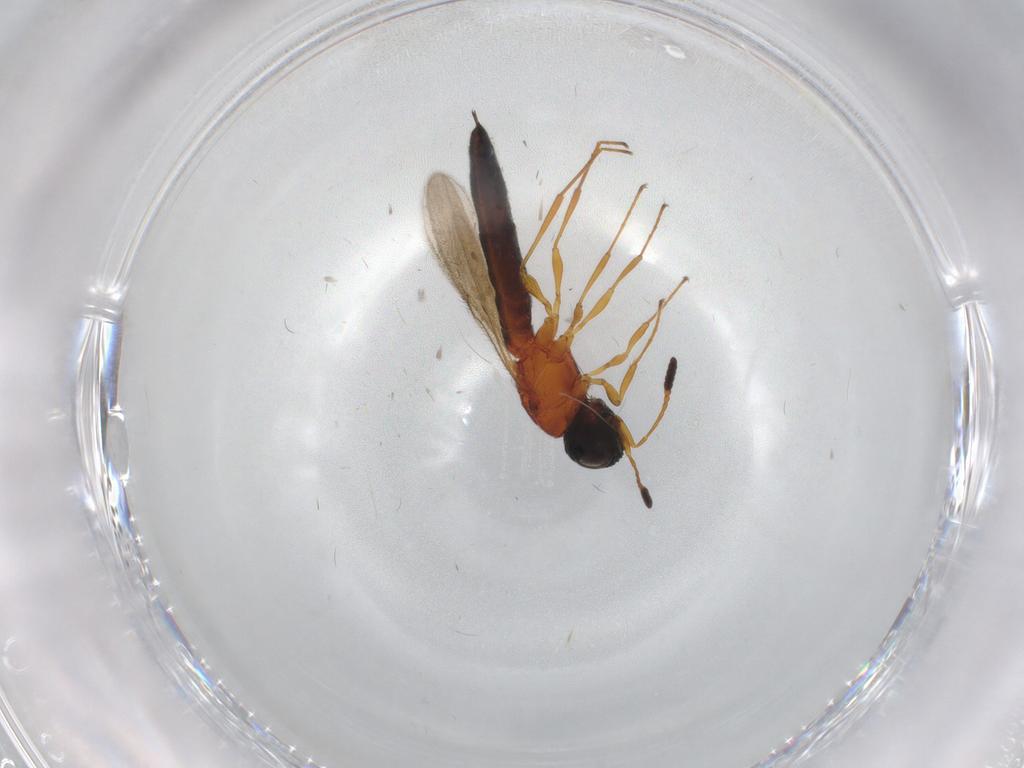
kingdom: Animalia
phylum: Arthropoda
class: Insecta
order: Hymenoptera
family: Scelionidae
